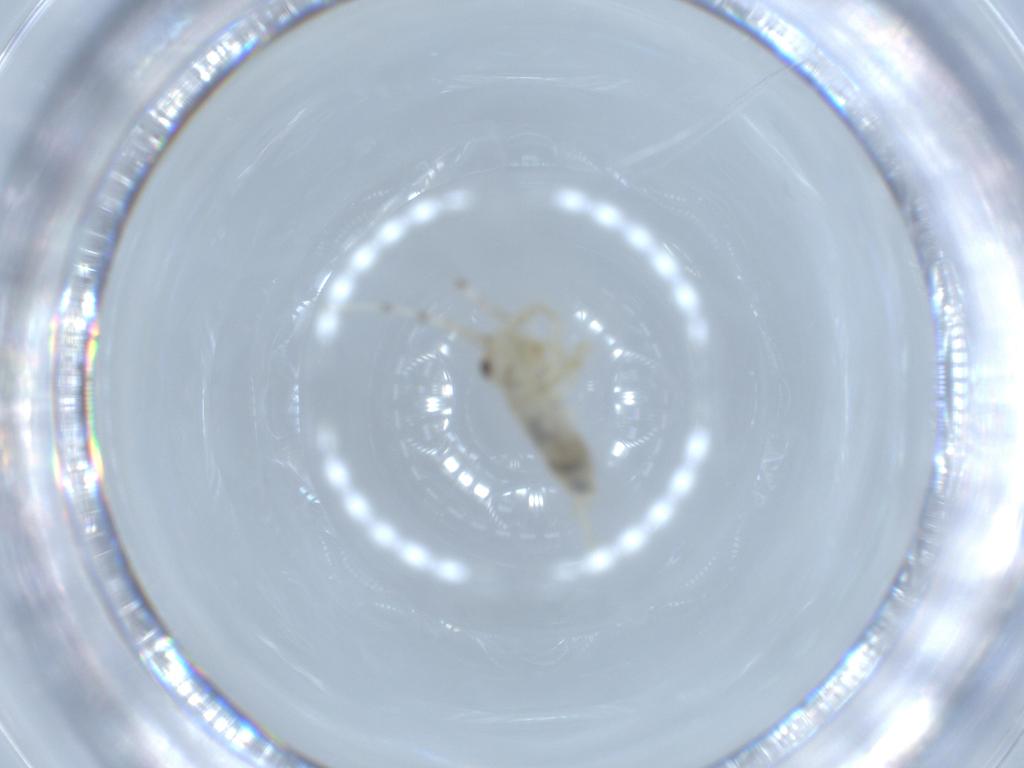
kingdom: Animalia
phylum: Arthropoda
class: Insecta
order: Orthoptera
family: Trigonidiidae
